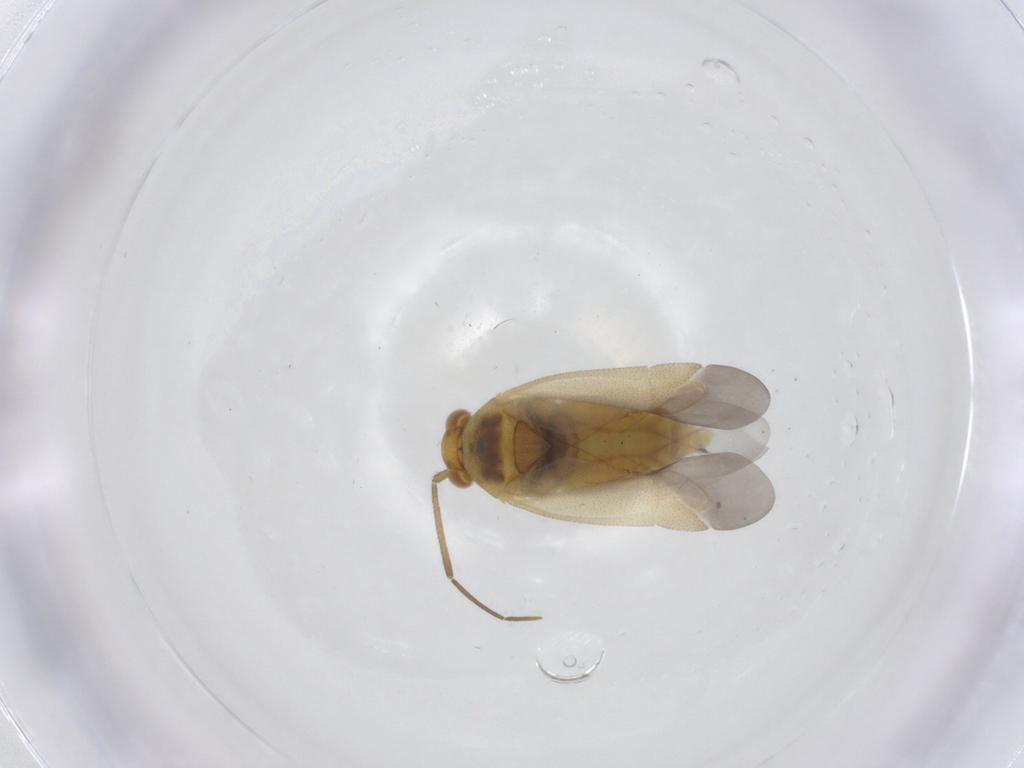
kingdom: Animalia
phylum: Arthropoda
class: Insecta
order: Hemiptera
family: Miridae
